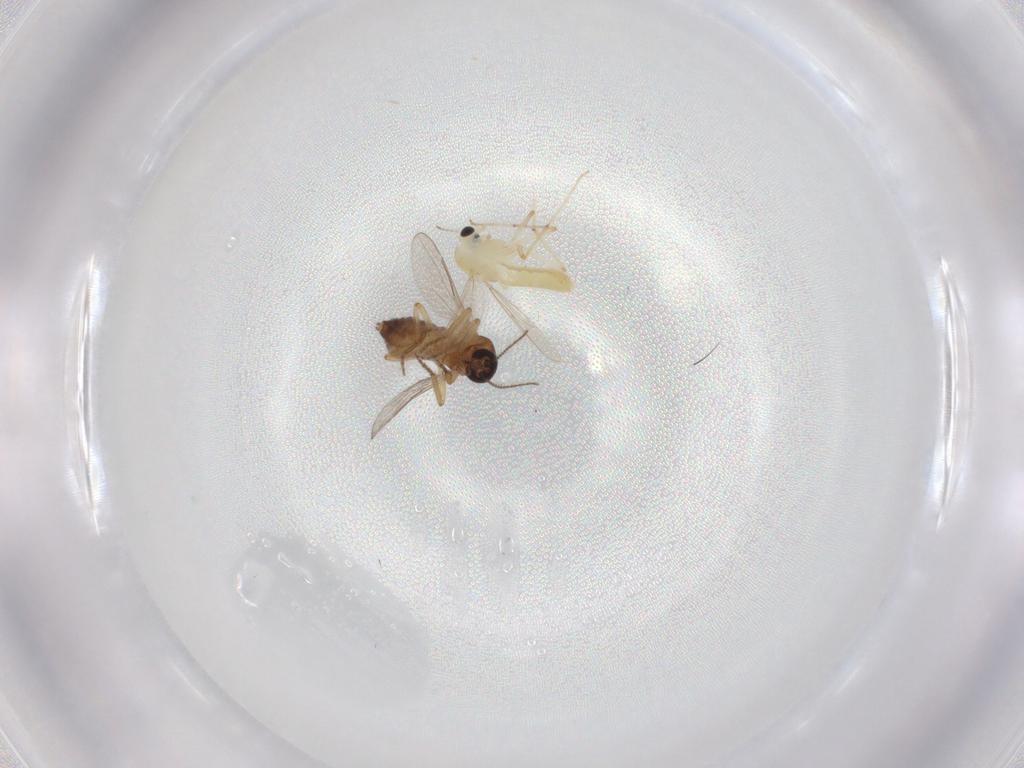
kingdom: Animalia
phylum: Arthropoda
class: Insecta
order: Diptera
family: Chironomidae
